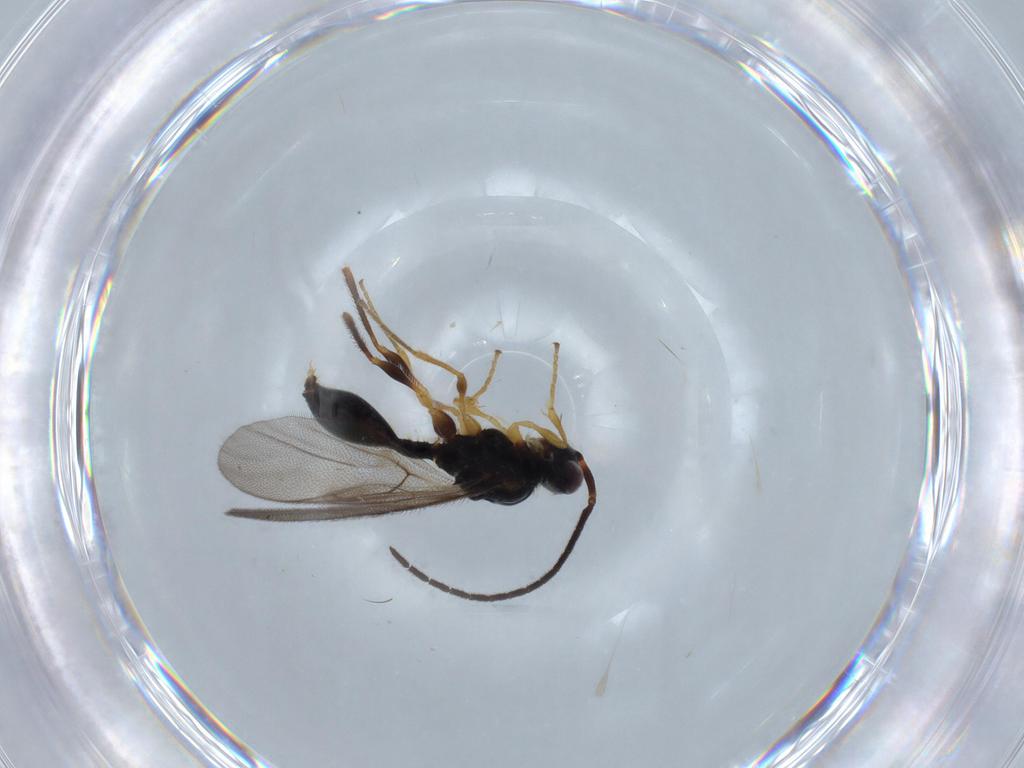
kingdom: Animalia
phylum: Arthropoda
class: Insecta
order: Hymenoptera
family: Diapriidae
